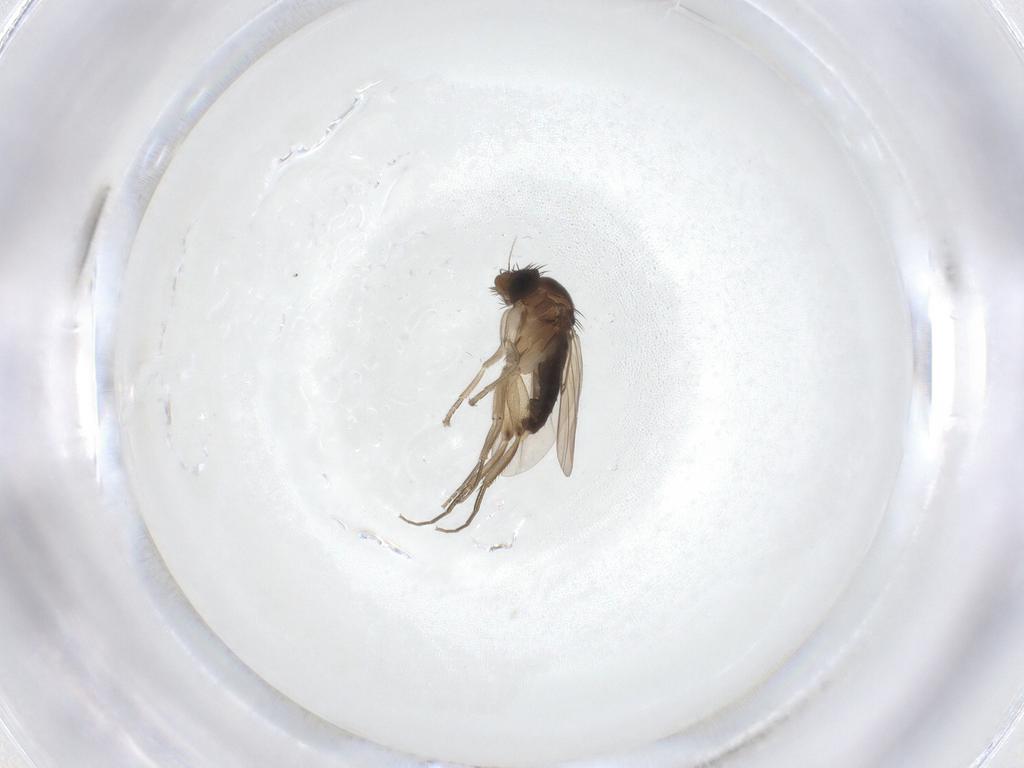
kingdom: Animalia
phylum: Arthropoda
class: Insecta
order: Diptera
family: Phoridae
